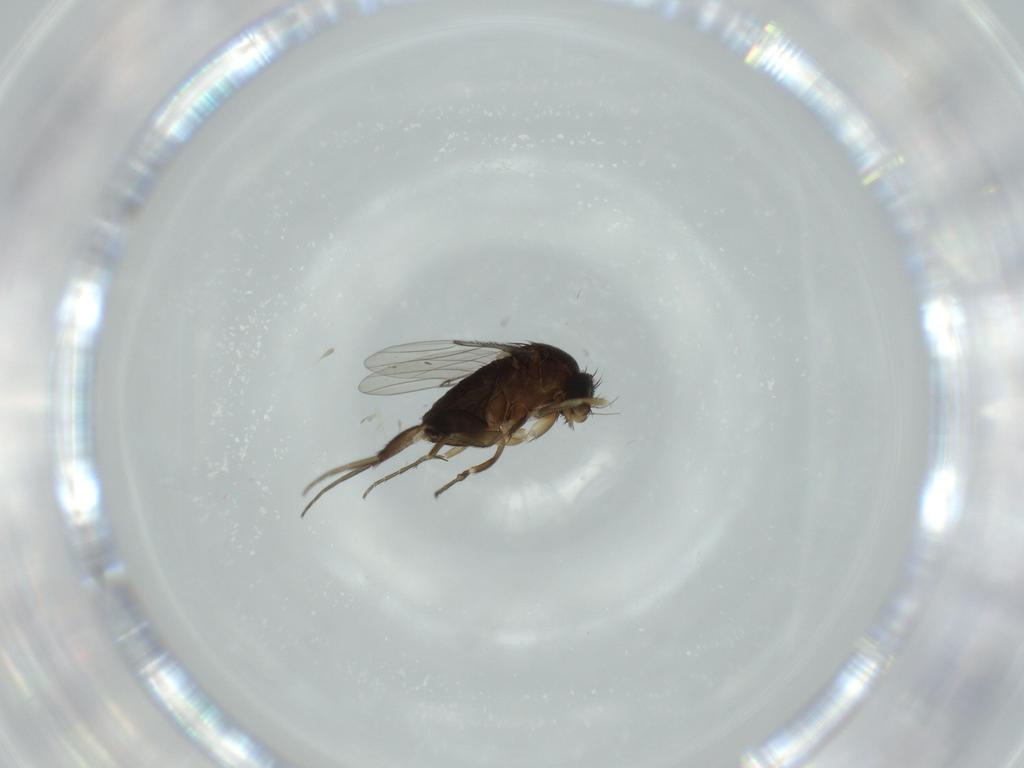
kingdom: Animalia
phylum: Arthropoda
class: Insecta
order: Diptera
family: Phoridae
